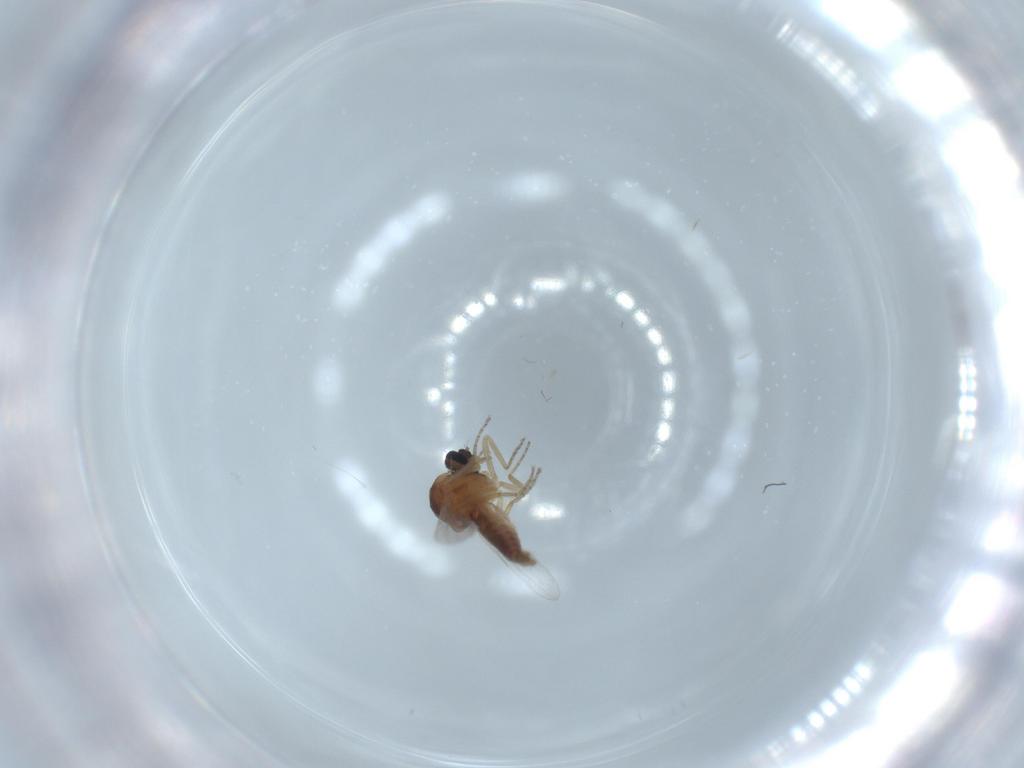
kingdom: Animalia
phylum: Arthropoda
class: Insecta
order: Diptera
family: Ceratopogonidae
